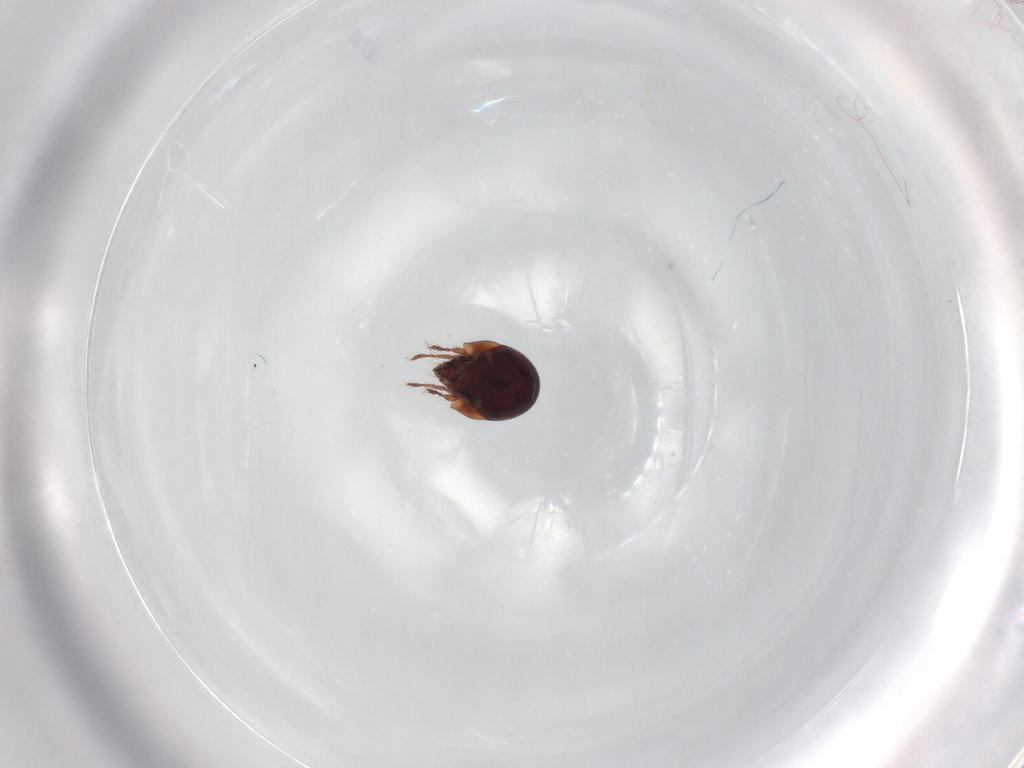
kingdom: Animalia
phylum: Arthropoda
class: Arachnida
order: Sarcoptiformes
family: Humerobatidae
